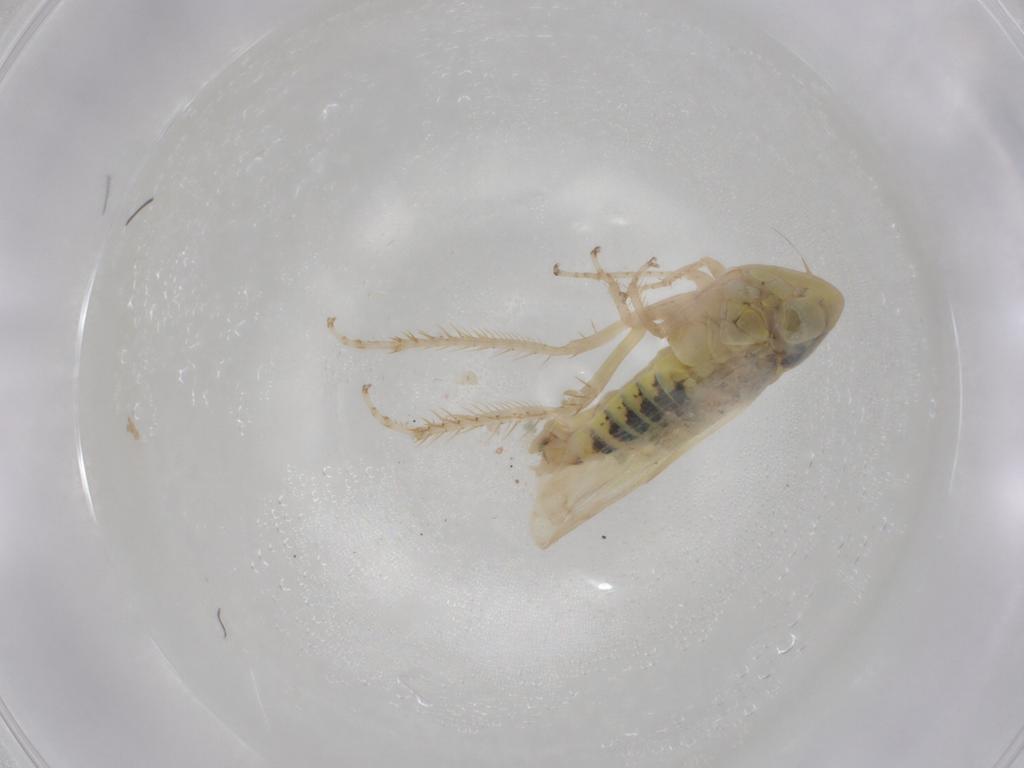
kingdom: Animalia
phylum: Arthropoda
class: Insecta
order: Hemiptera
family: Cicadellidae
